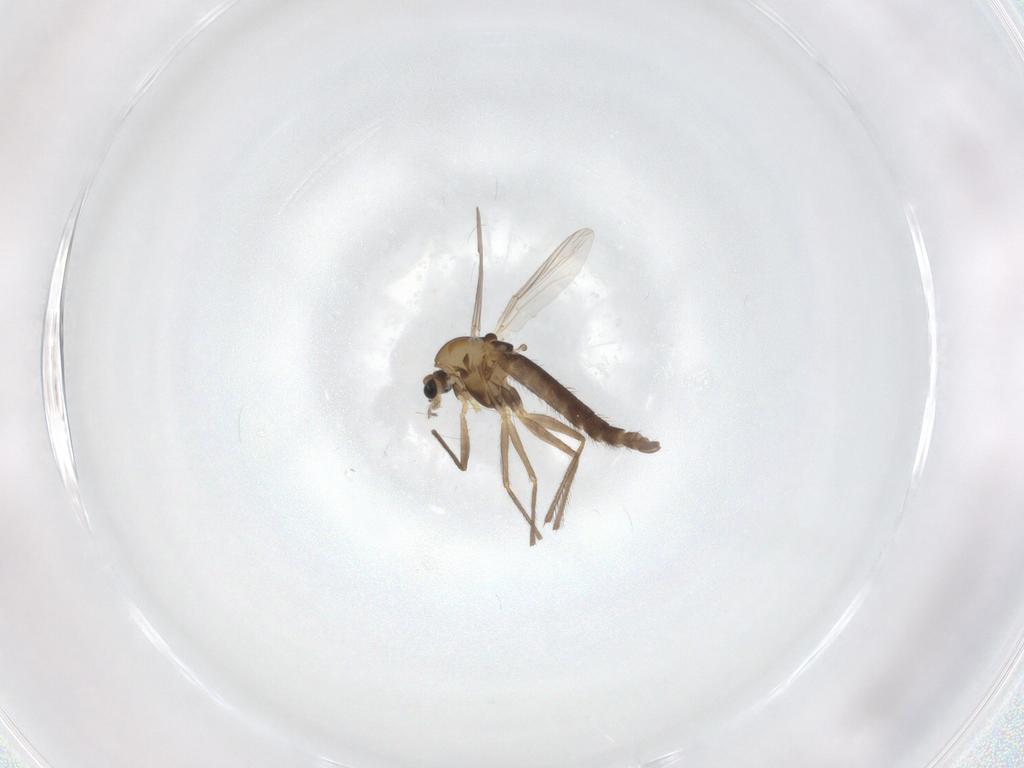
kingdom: Animalia
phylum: Arthropoda
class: Insecta
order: Diptera
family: Chironomidae
